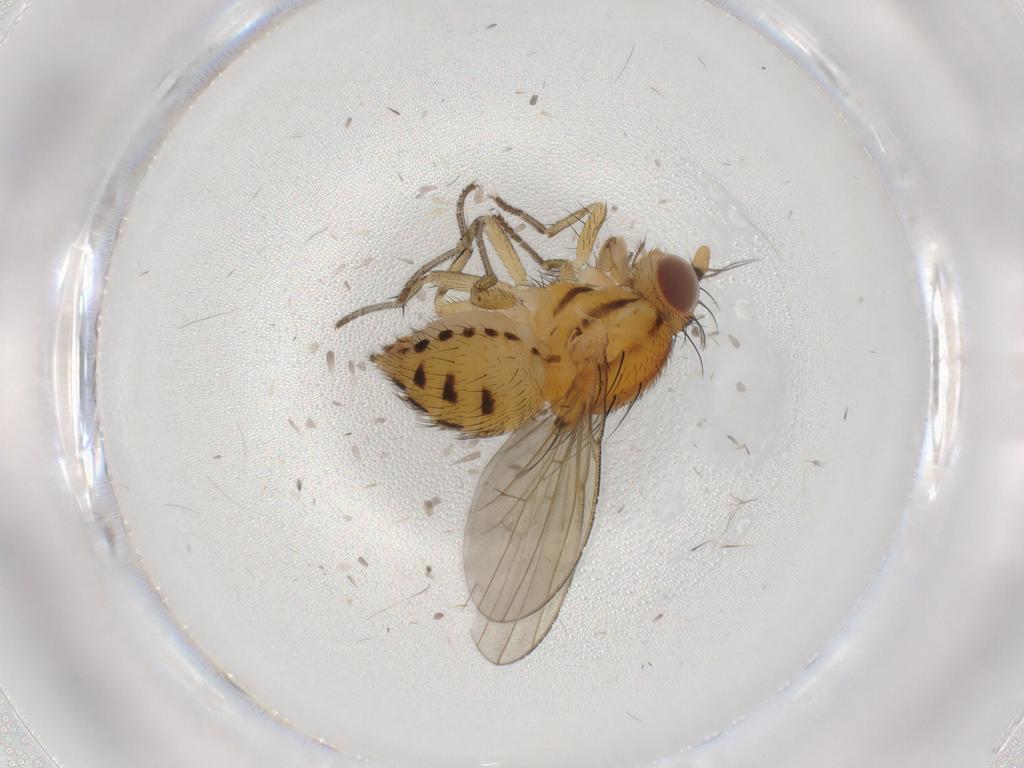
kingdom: Animalia
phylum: Arthropoda
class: Insecta
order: Diptera
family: Ceratopogonidae
